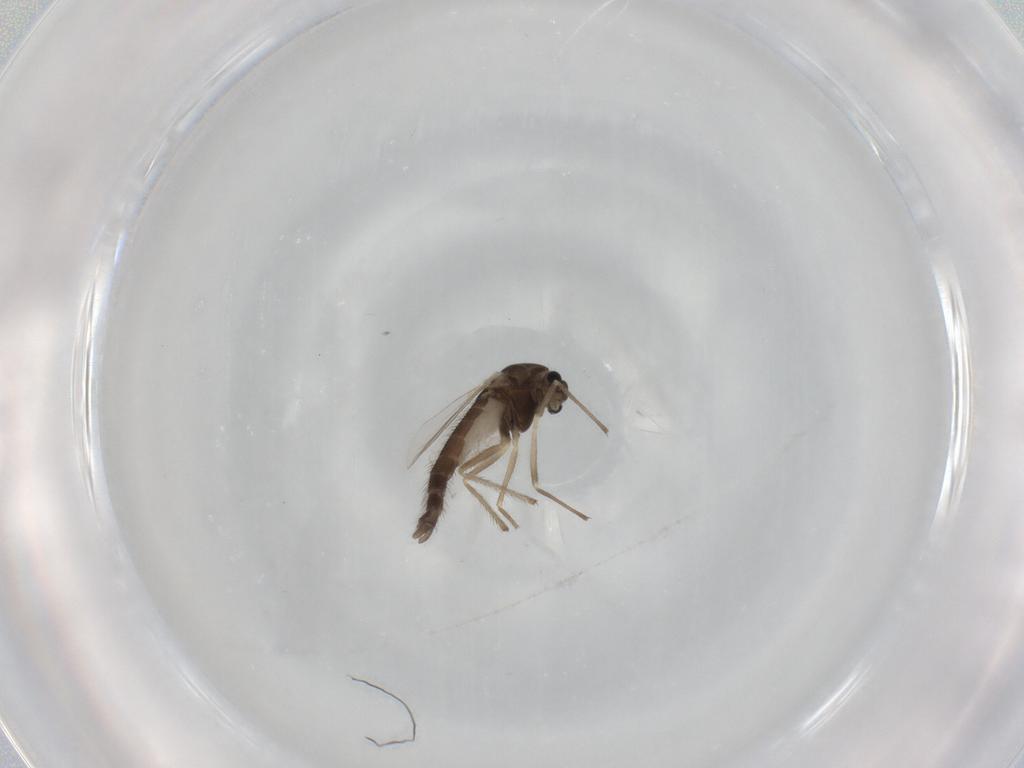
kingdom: Animalia
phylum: Arthropoda
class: Insecta
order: Diptera
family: Chironomidae
